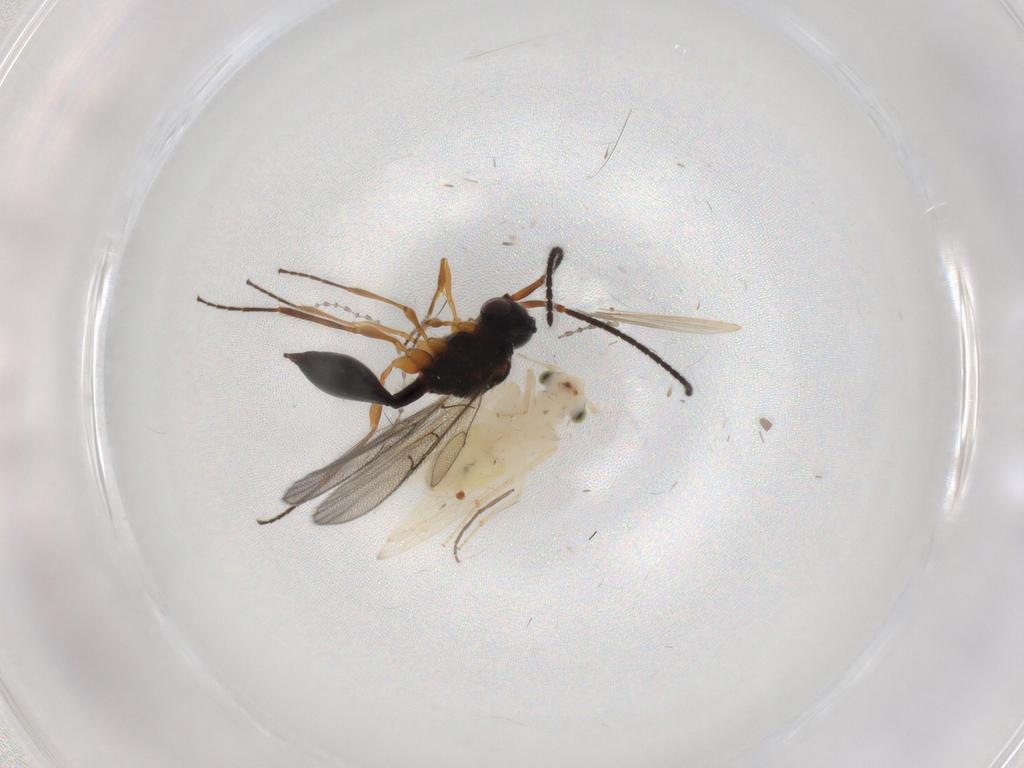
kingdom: Animalia
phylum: Arthropoda
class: Insecta
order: Psocodea
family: Lepidopsocidae
